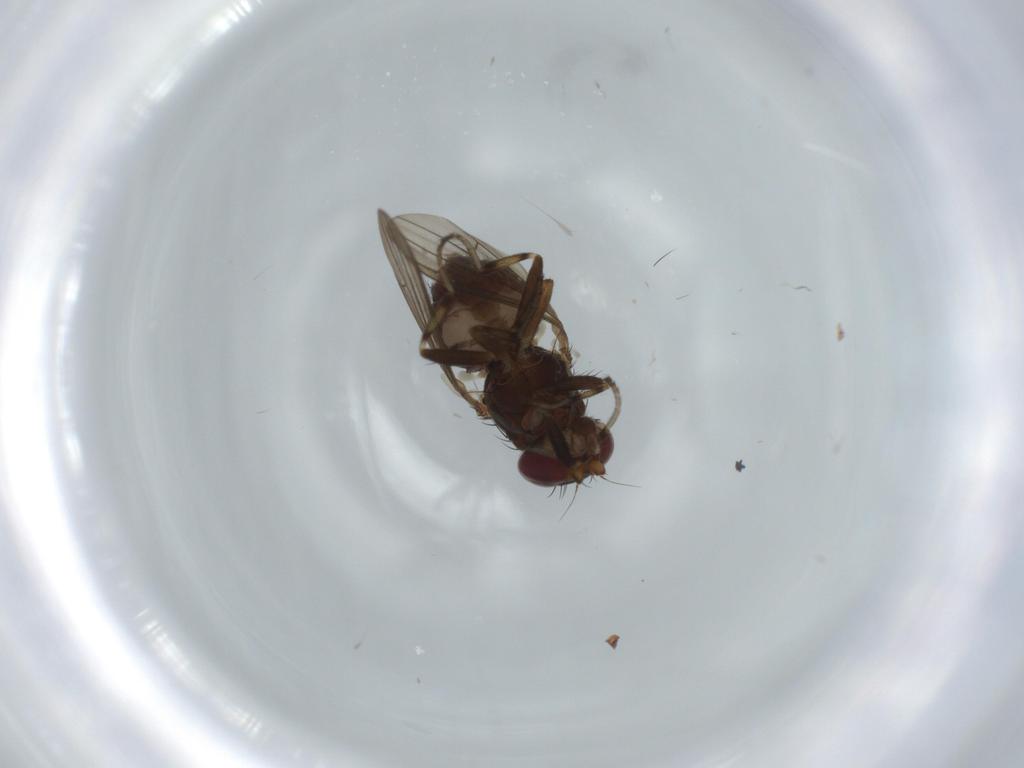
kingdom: Animalia
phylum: Arthropoda
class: Insecta
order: Diptera
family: Heleomyzidae
